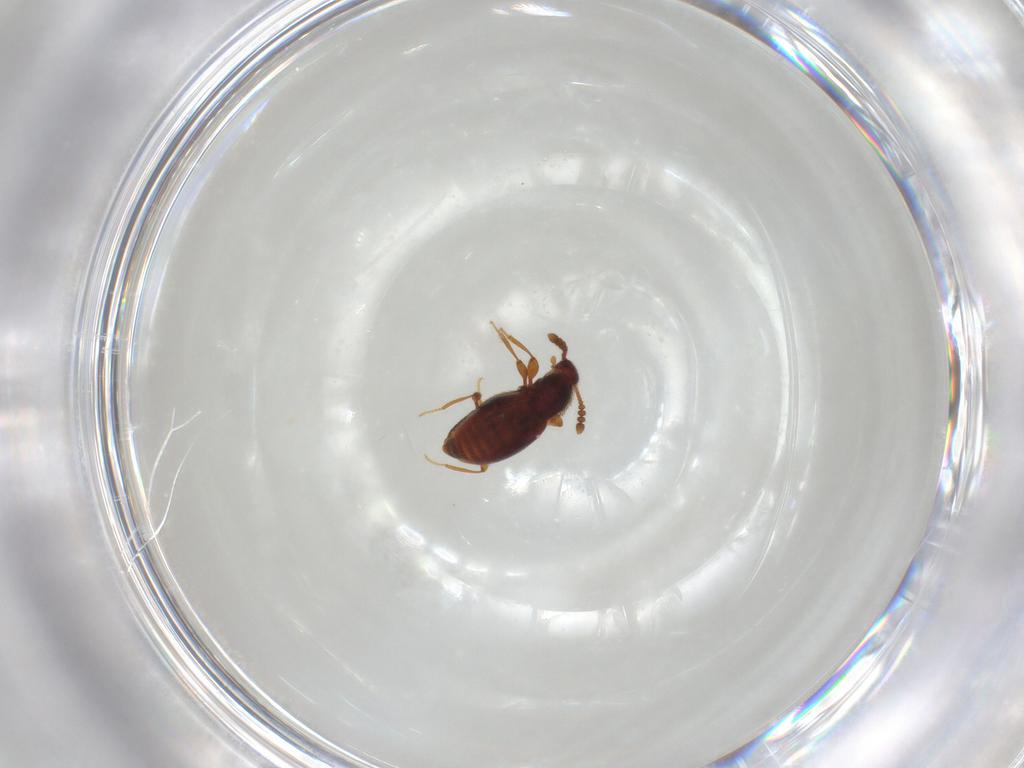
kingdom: Animalia
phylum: Arthropoda
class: Insecta
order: Coleoptera
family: Staphylinidae
